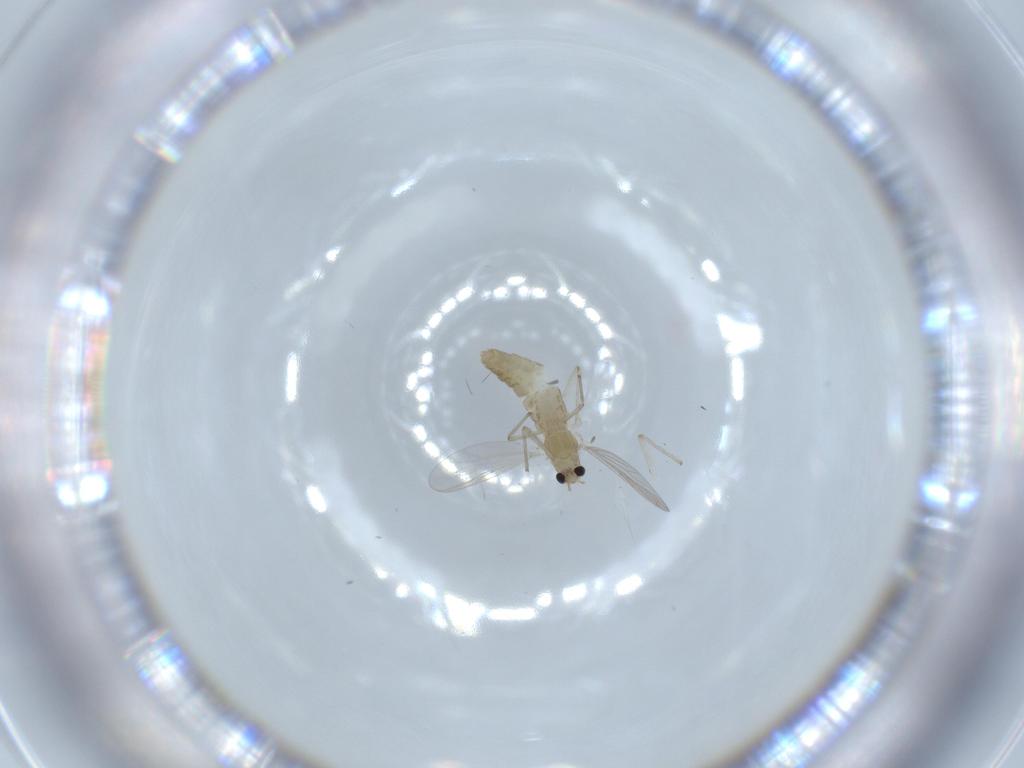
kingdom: Animalia
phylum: Arthropoda
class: Insecta
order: Diptera
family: Chironomidae
